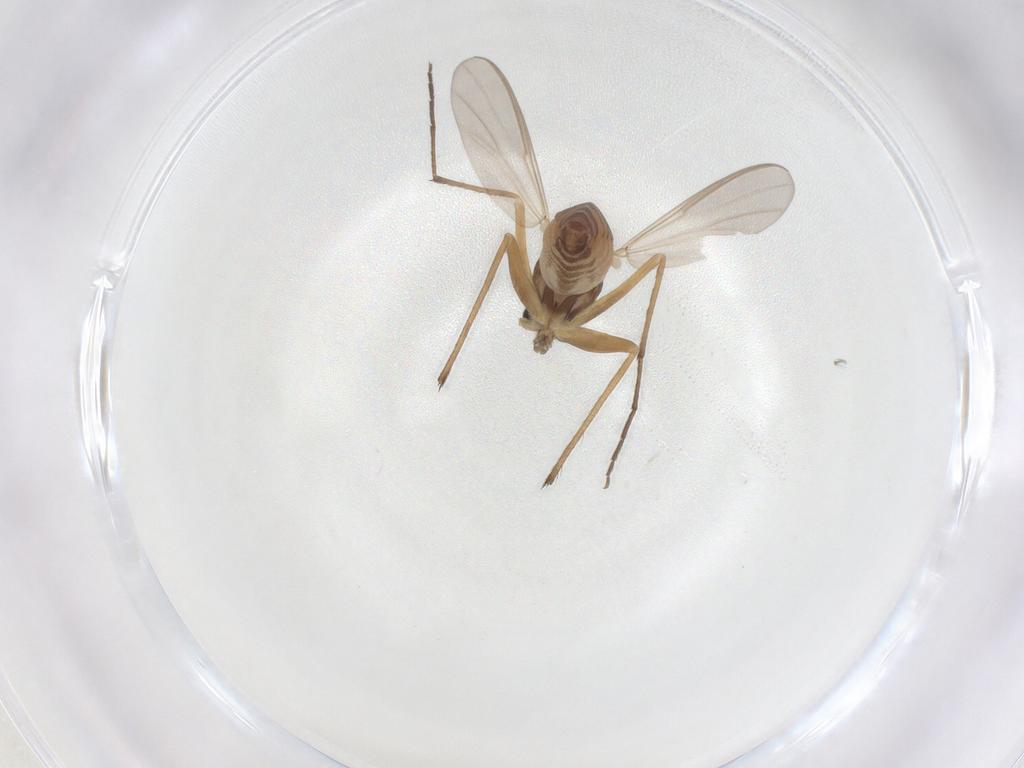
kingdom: Animalia
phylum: Arthropoda
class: Insecta
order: Diptera
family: Chironomidae
